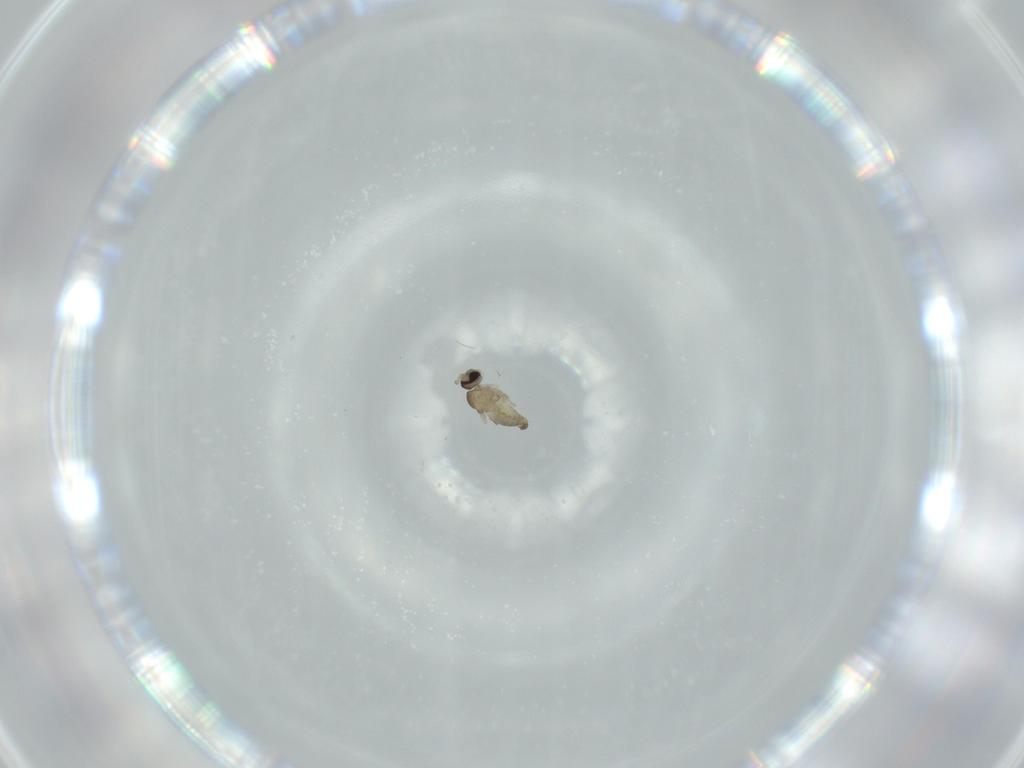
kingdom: Animalia
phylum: Arthropoda
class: Insecta
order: Diptera
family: Cecidomyiidae
